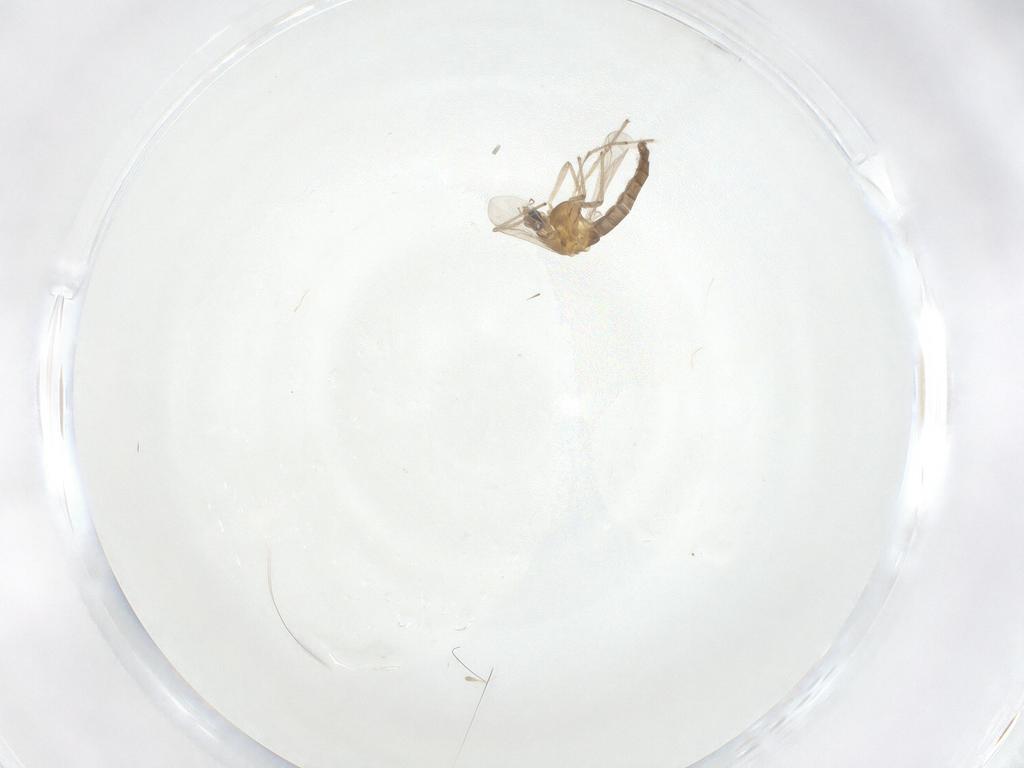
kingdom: Animalia
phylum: Arthropoda
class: Insecta
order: Diptera
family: Chironomidae
